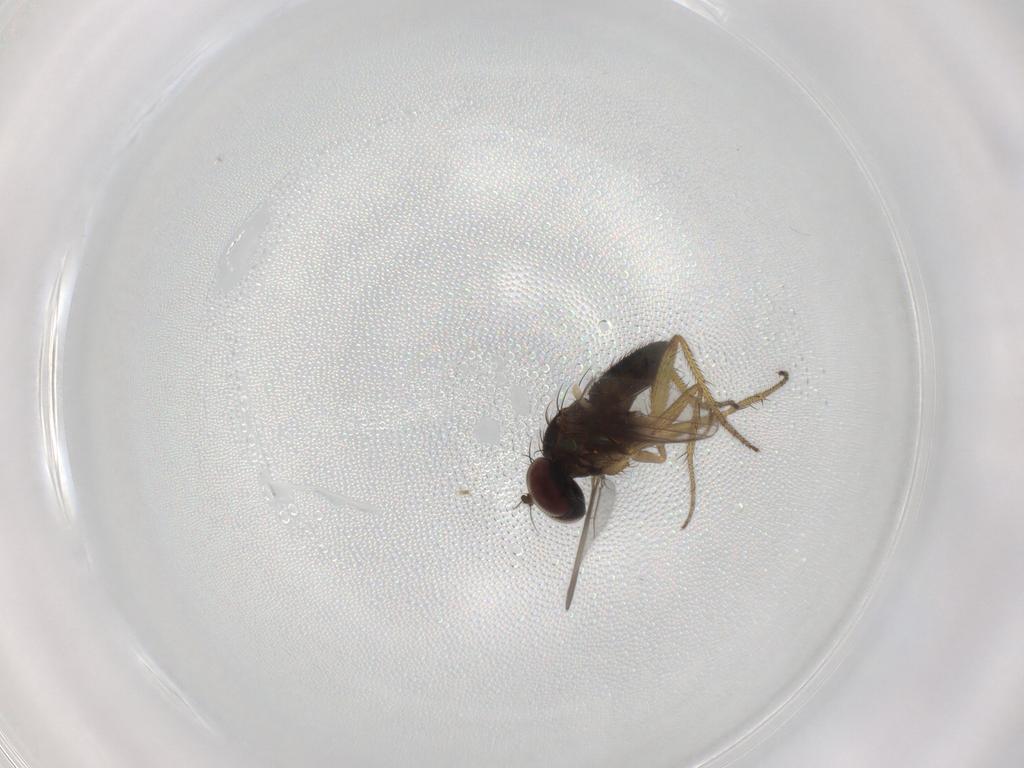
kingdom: Animalia
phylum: Arthropoda
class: Insecta
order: Diptera
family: Dolichopodidae
